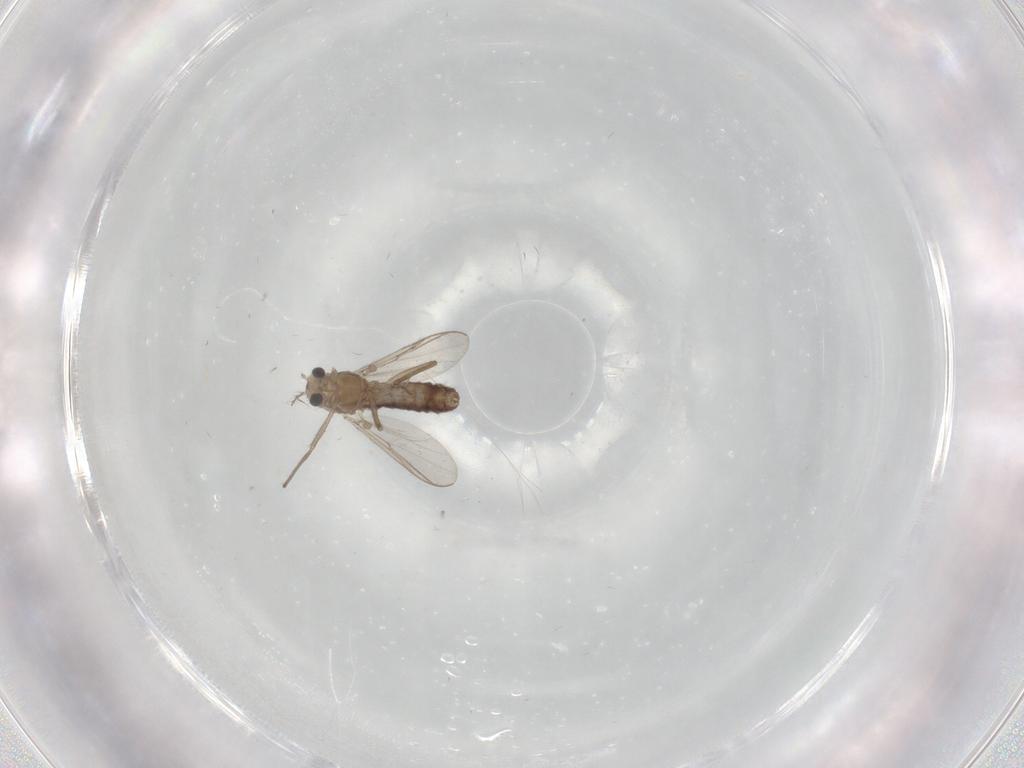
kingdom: Animalia
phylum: Arthropoda
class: Insecta
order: Diptera
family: Chironomidae
